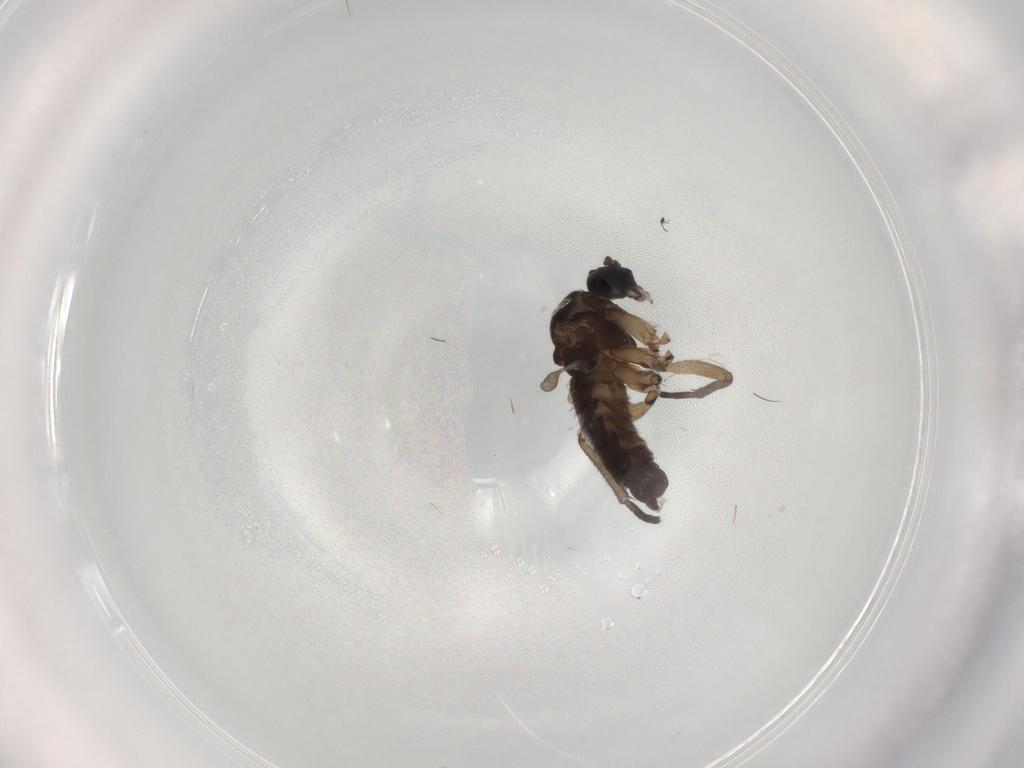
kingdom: Animalia
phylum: Arthropoda
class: Insecta
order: Diptera
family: Sciaridae
